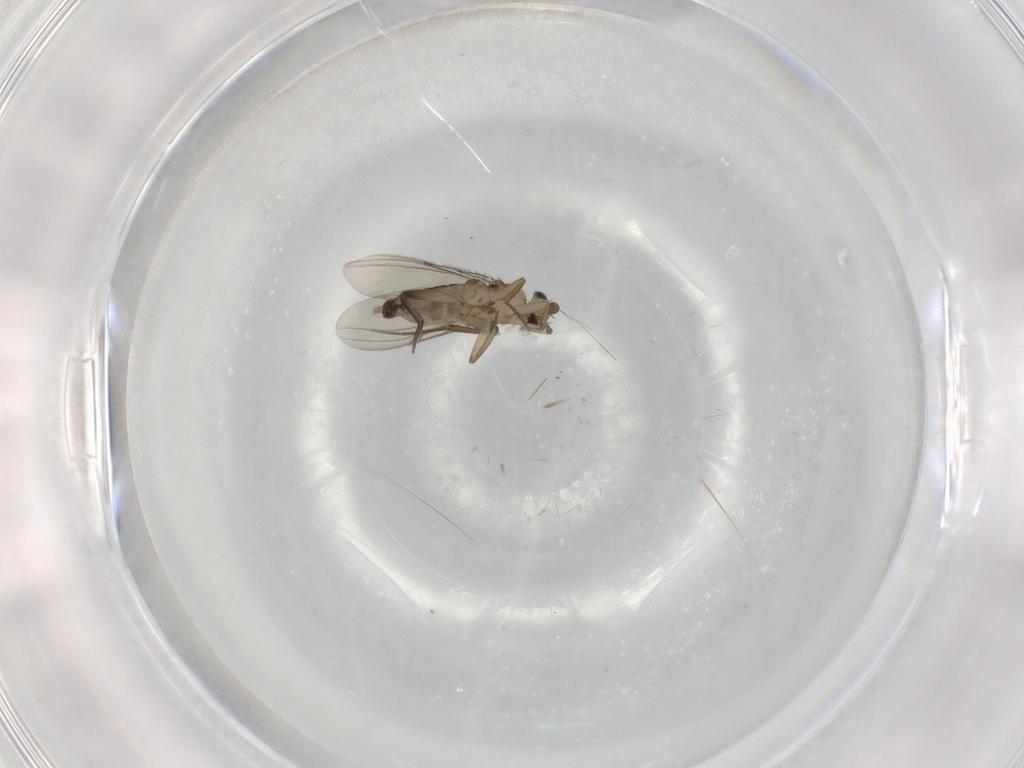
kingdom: Animalia
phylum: Arthropoda
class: Insecta
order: Diptera
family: Phoridae
